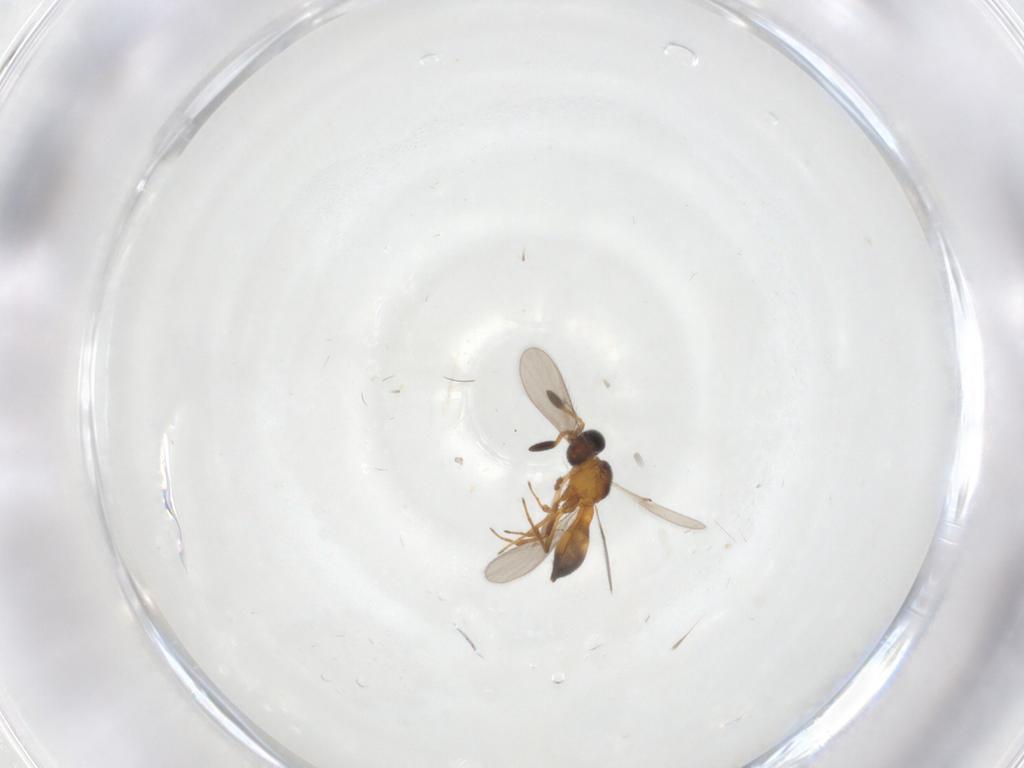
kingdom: Animalia
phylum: Arthropoda
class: Insecta
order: Hymenoptera
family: Scelionidae
